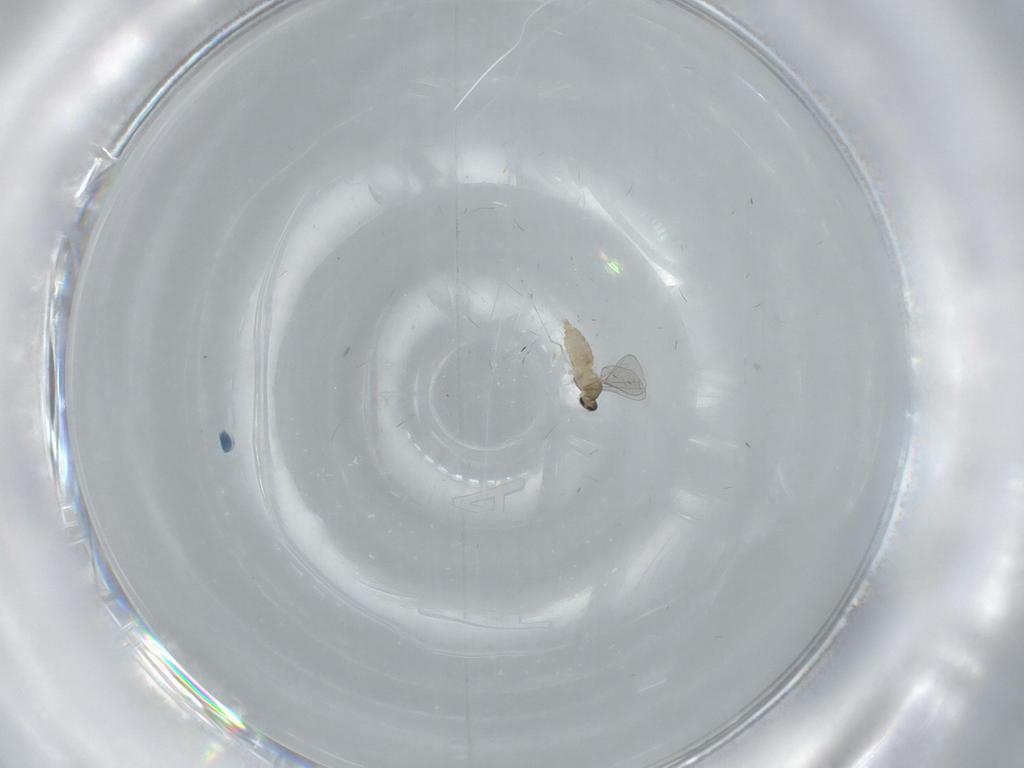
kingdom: Animalia
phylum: Arthropoda
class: Insecta
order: Diptera
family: Cecidomyiidae
